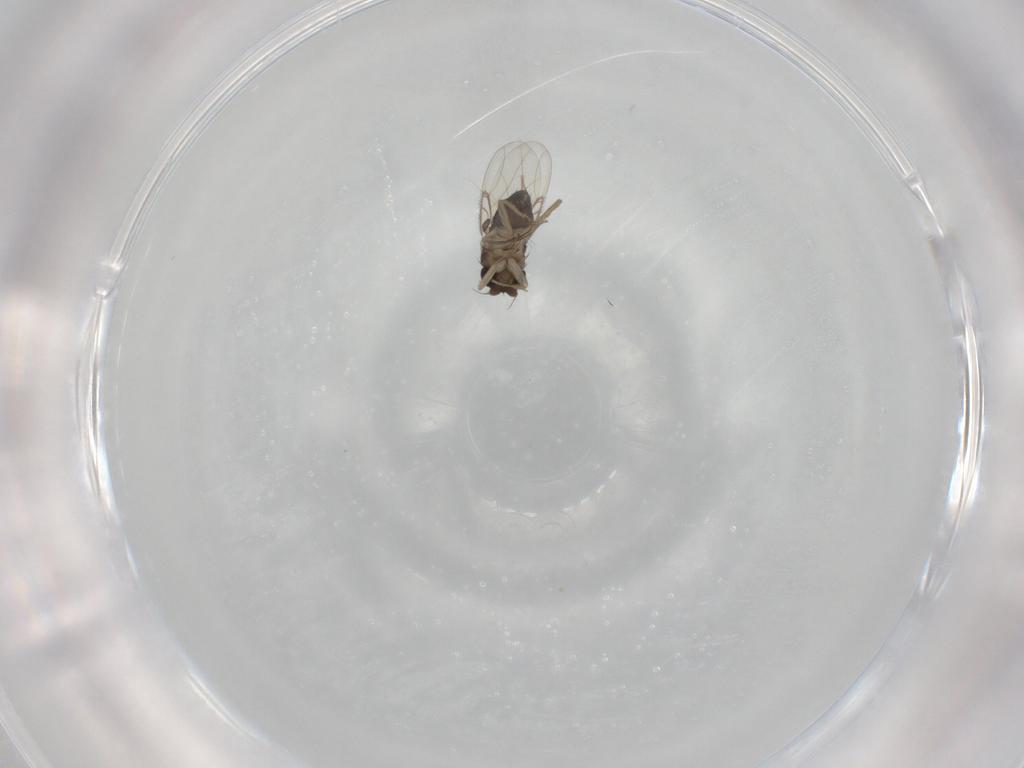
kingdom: Animalia
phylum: Arthropoda
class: Insecta
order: Diptera
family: Phoridae
